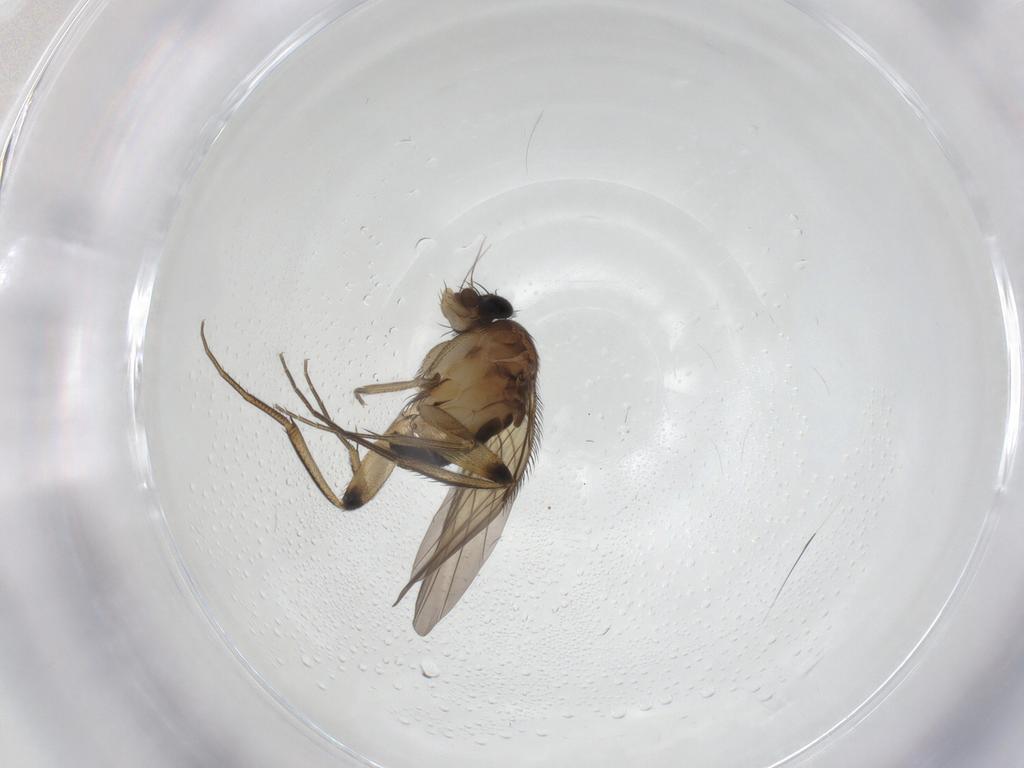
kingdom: Animalia
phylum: Arthropoda
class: Insecta
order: Diptera
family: Phoridae
